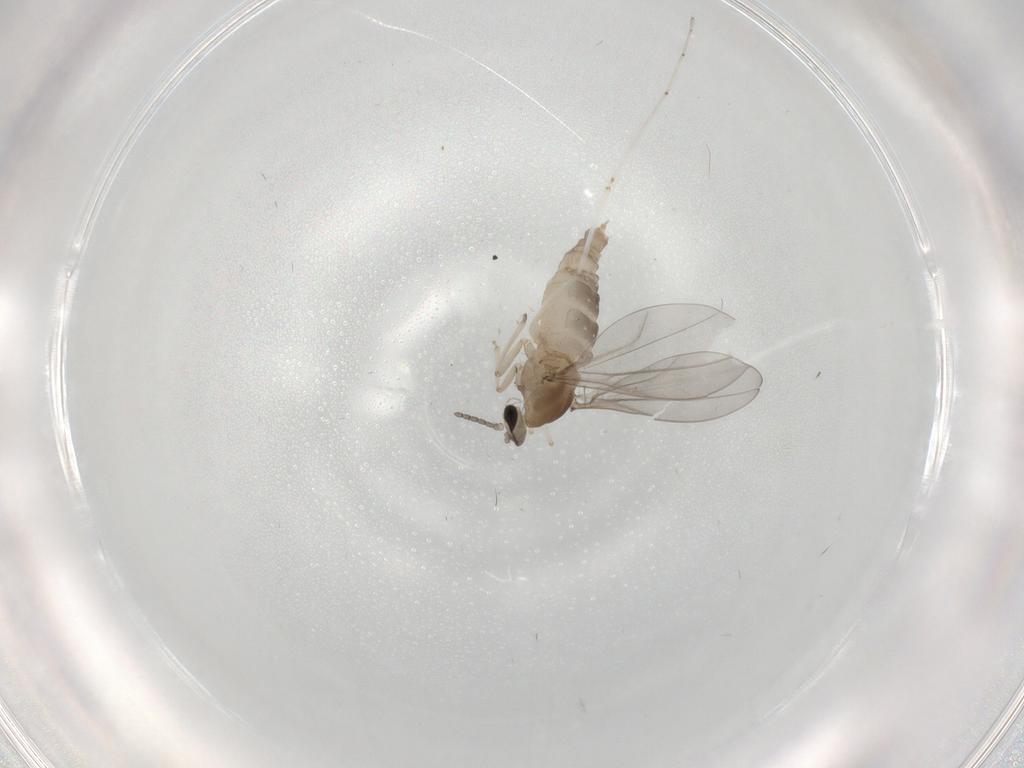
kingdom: Animalia
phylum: Arthropoda
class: Insecta
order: Diptera
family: Cecidomyiidae
